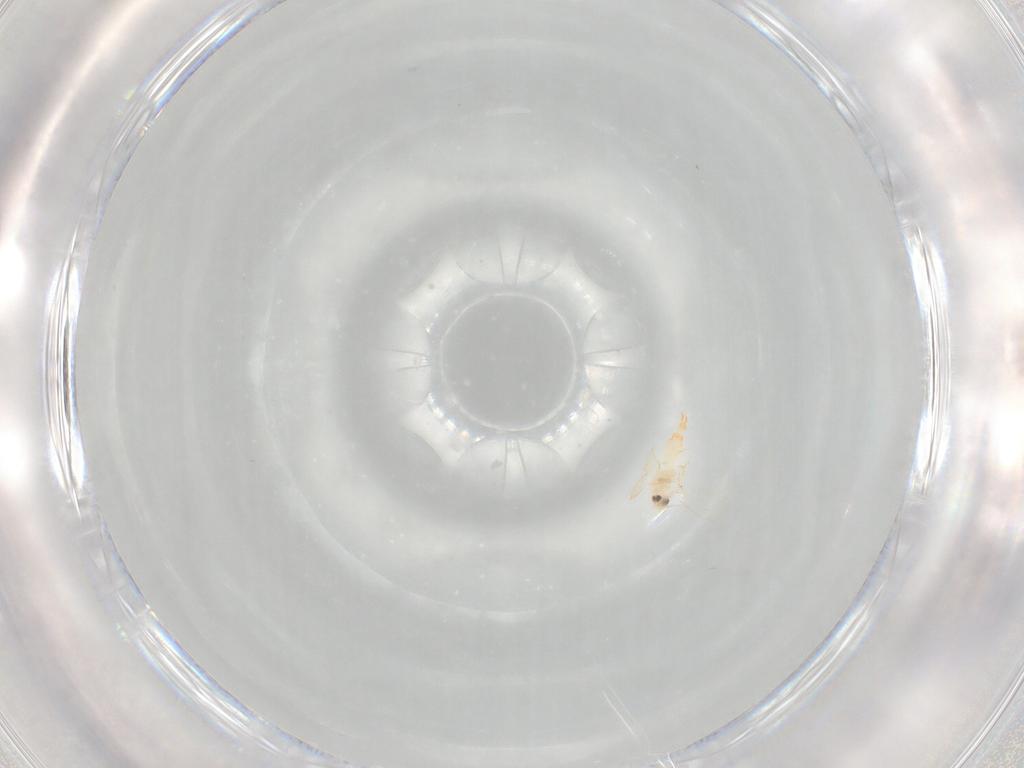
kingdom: Animalia
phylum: Arthropoda
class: Insecta
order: Hemiptera
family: Aleyrodidae
